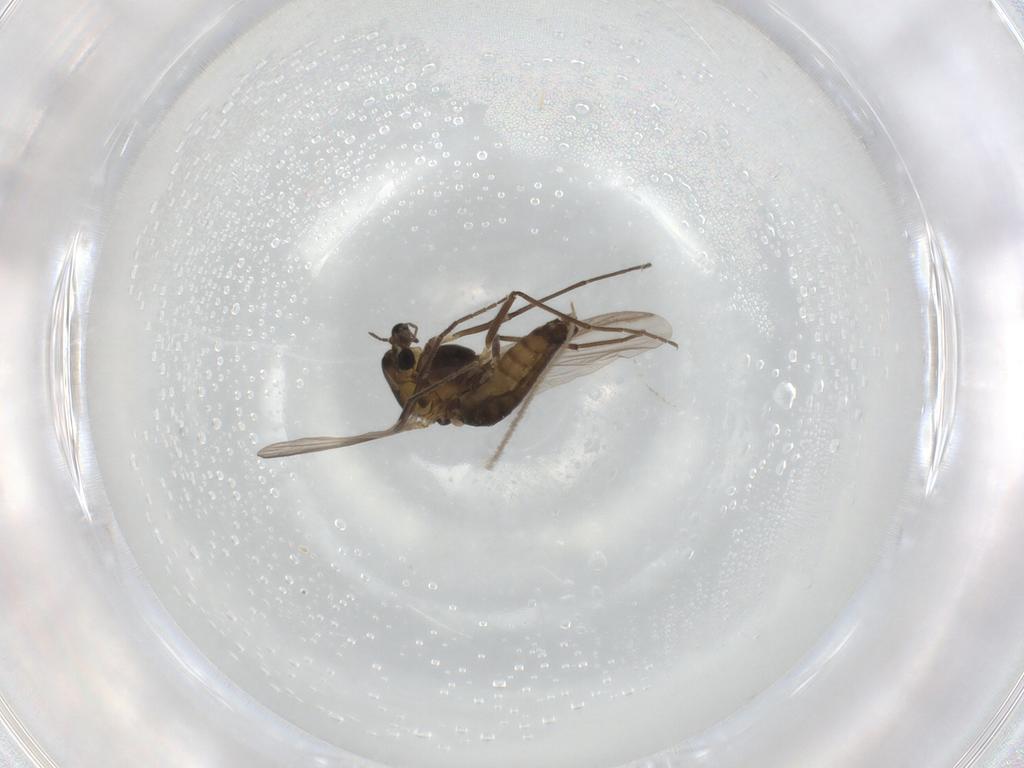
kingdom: Animalia
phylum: Arthropoda
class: Insecta
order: Diptera
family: Chironomidae
